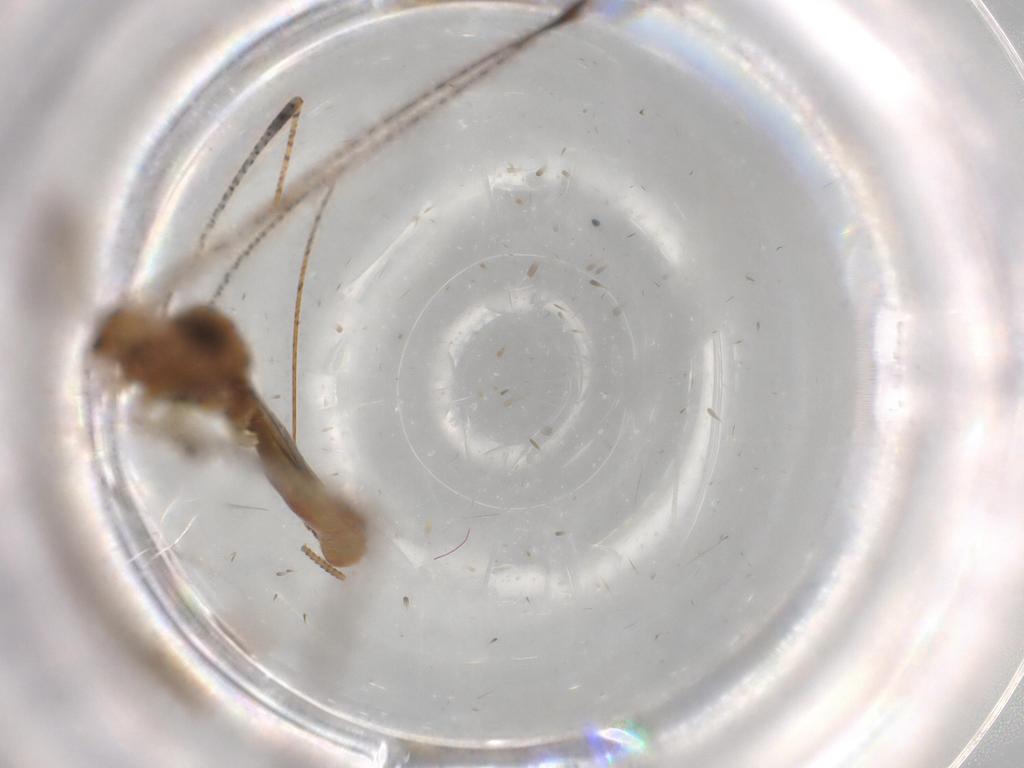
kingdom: Animalia
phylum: Arthropoda
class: Insecta
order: Hemiptera
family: Berytidae
